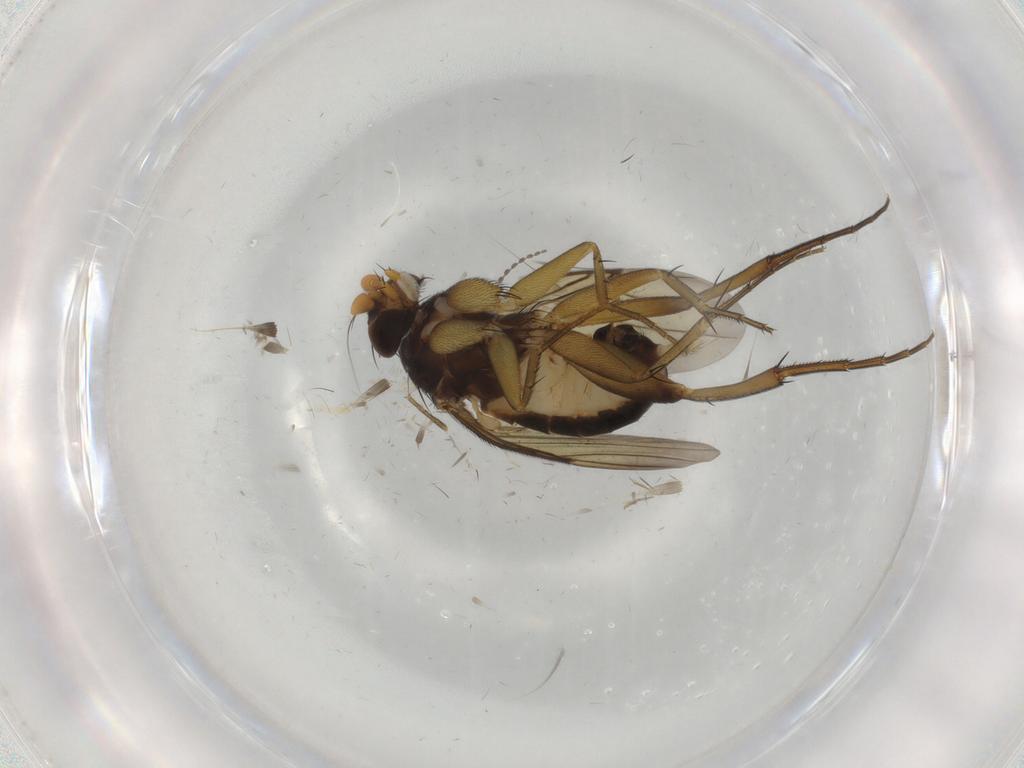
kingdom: Animalia
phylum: Arthropoda
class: Insecta
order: Diptera
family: Phoridae
